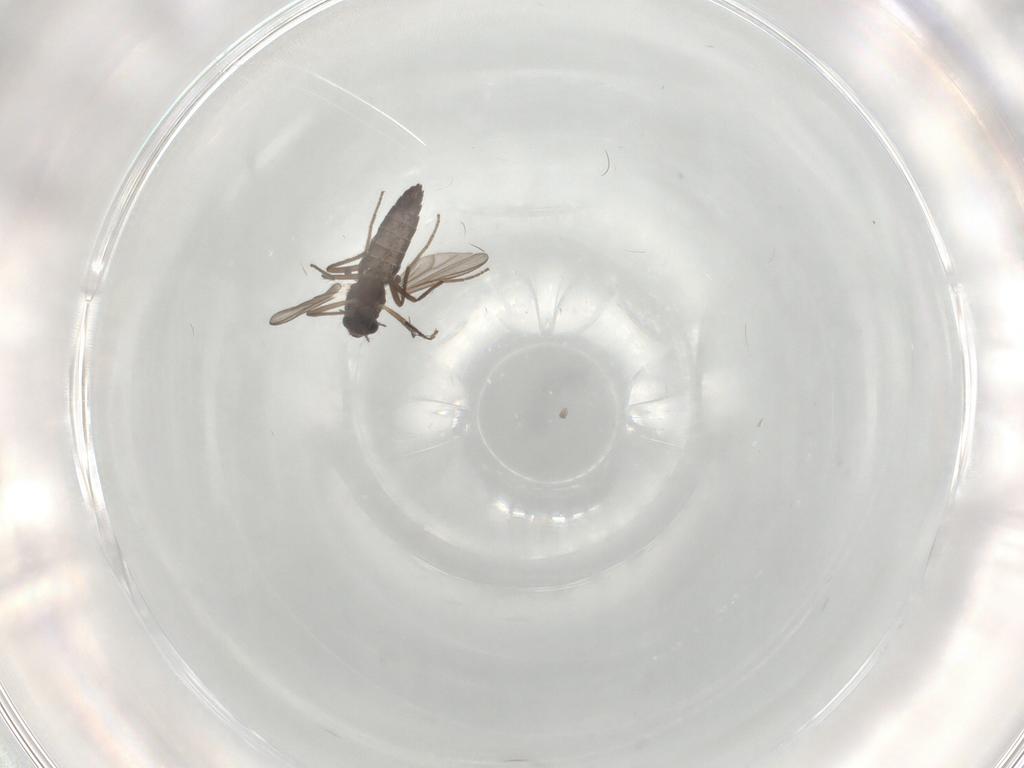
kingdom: Animalia
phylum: Arthropoda
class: Insecta
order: Diptera
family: Chironomidae
